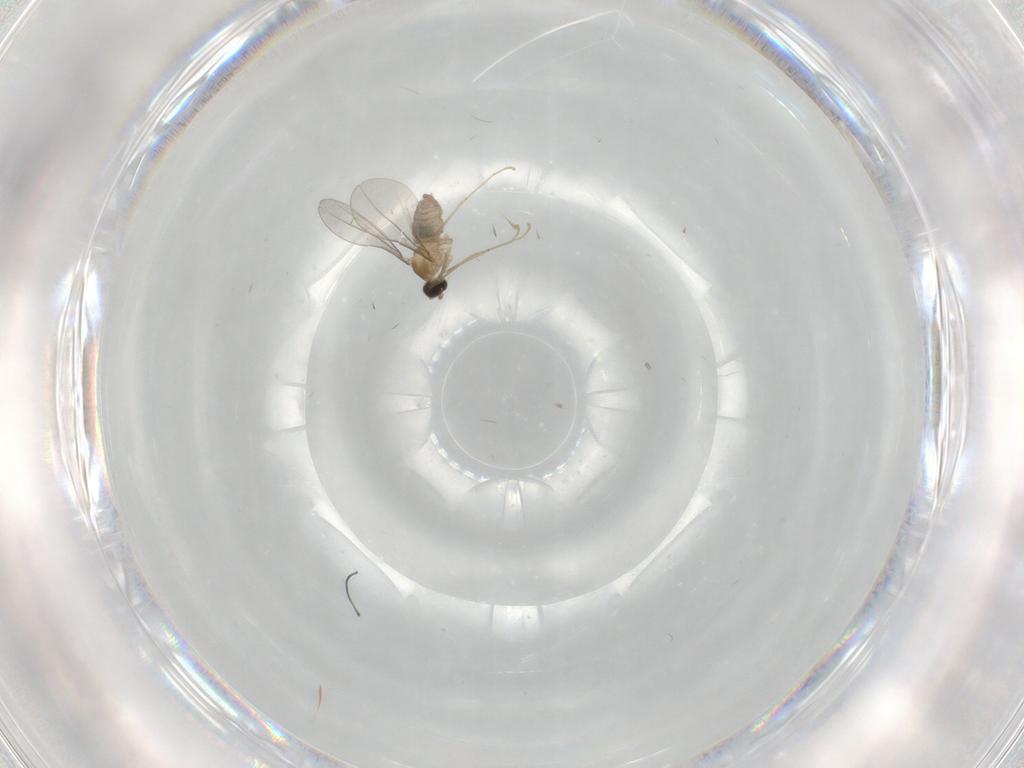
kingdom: Animalia
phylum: Arthropoda
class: Insecta
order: Diptera
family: Cecidomyiidae
